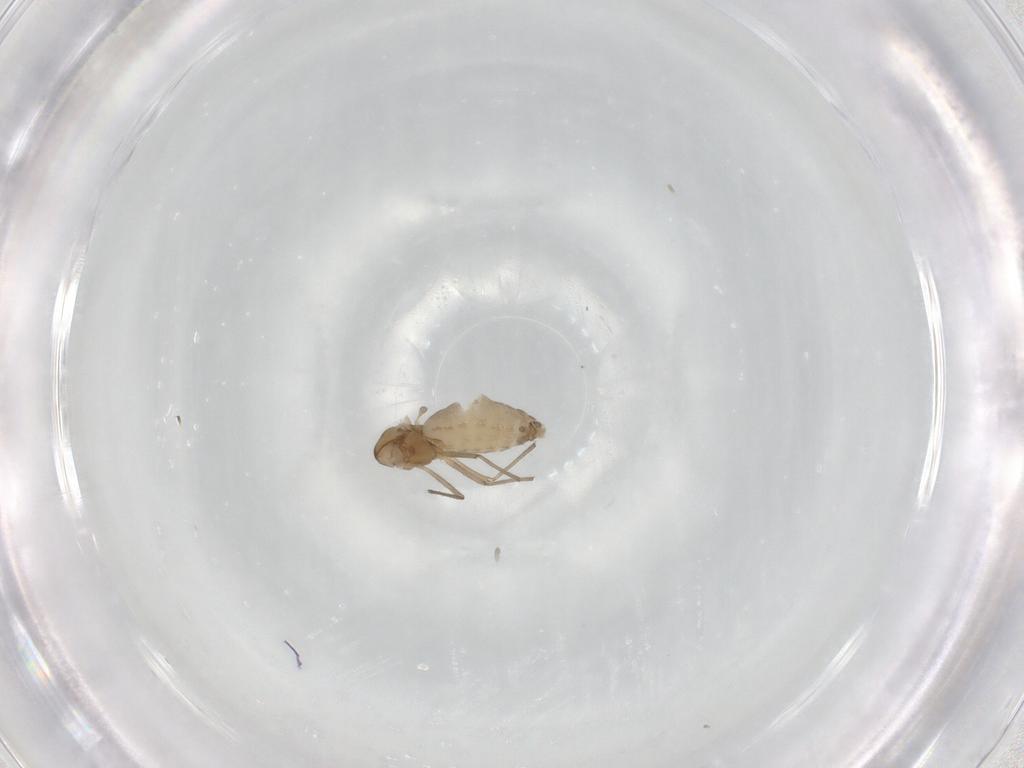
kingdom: Animalia
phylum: Arthropoda
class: Insecta
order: Diptera
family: Chironomidae
